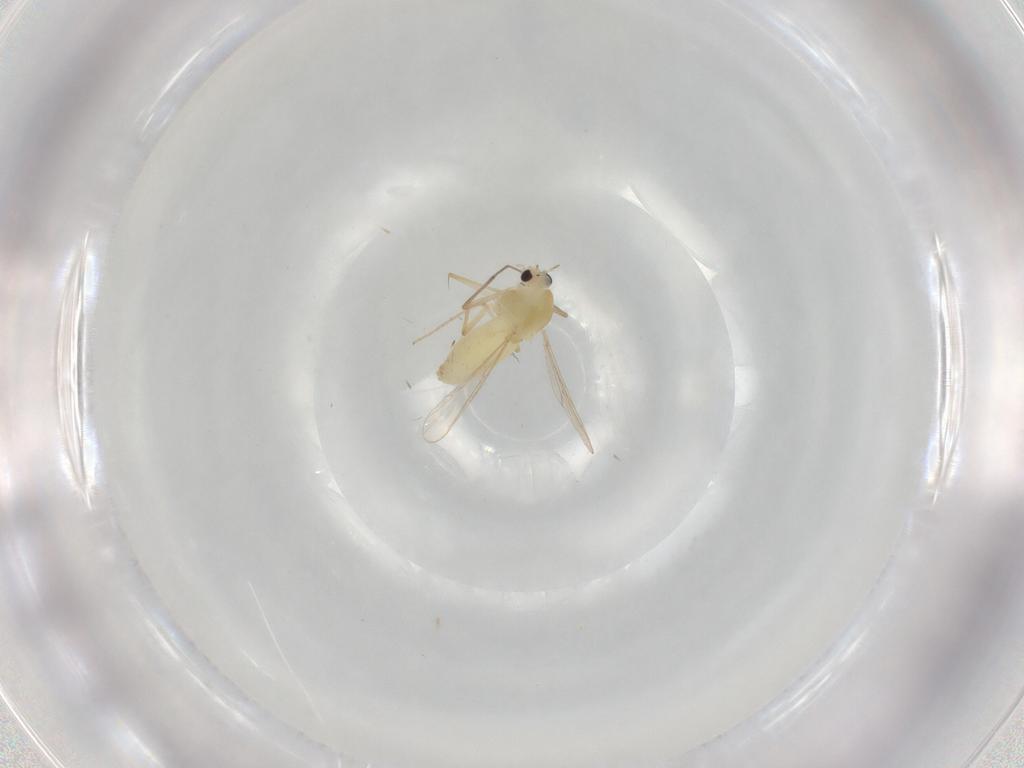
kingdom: Animalia
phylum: Arthropoda
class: Insecta
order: Diptera
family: Chironomidae
